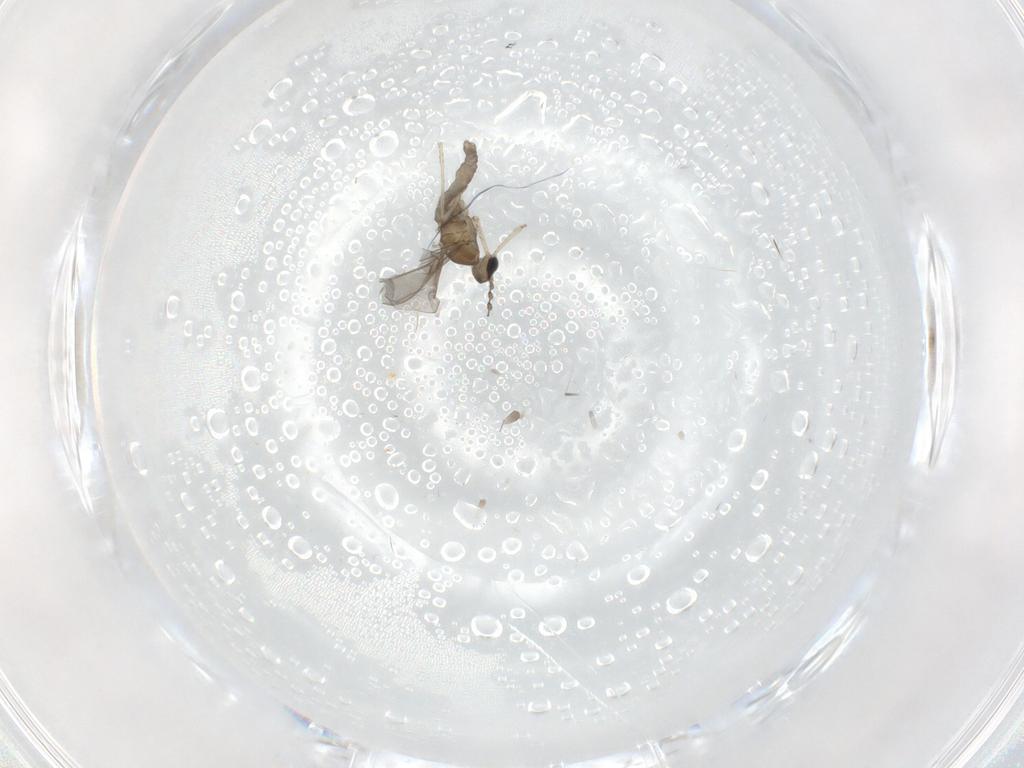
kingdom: Animalia
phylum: Arthropoda
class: Insecta
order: Diptera
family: Cecidomyiidae
